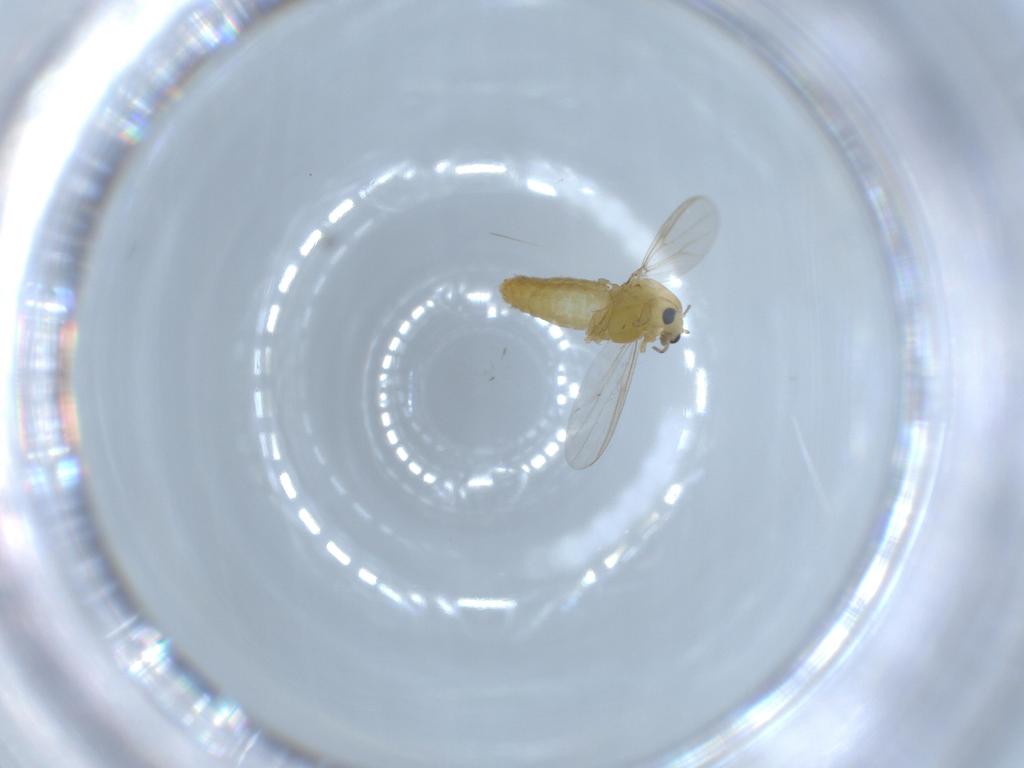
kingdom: Animalia
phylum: Arthropoda
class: Insecta
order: Diptera
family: Chironomidae
